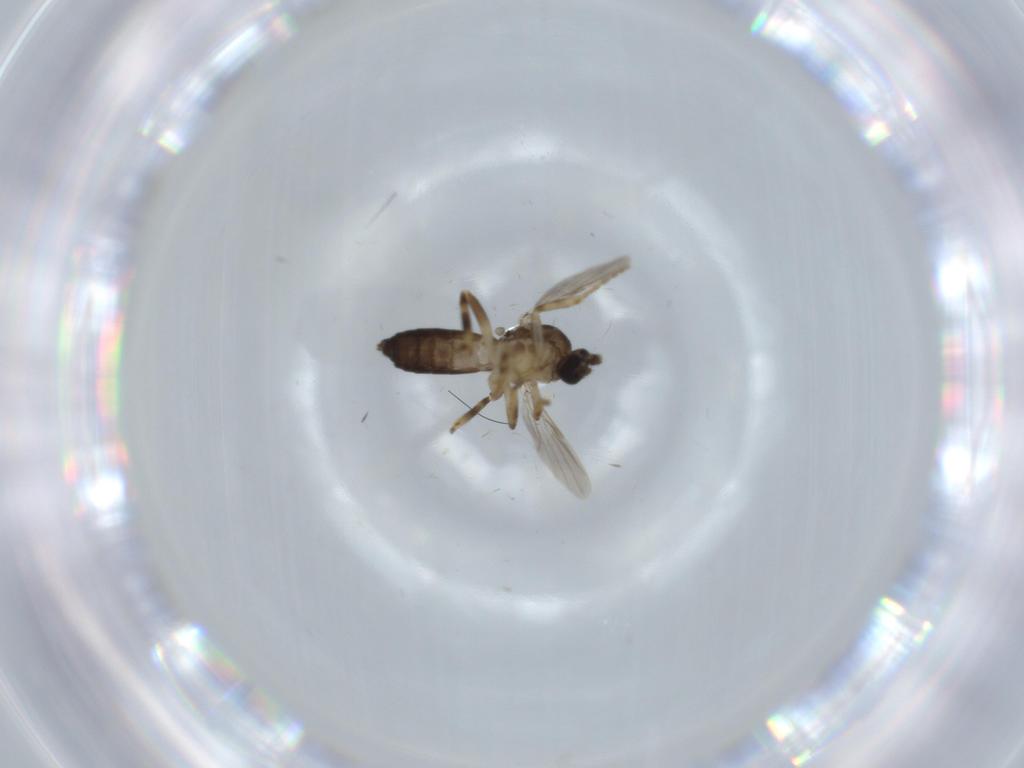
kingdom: Animalia
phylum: Arthropoda
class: Insecta
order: Diptera
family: Ceratopogonidae
